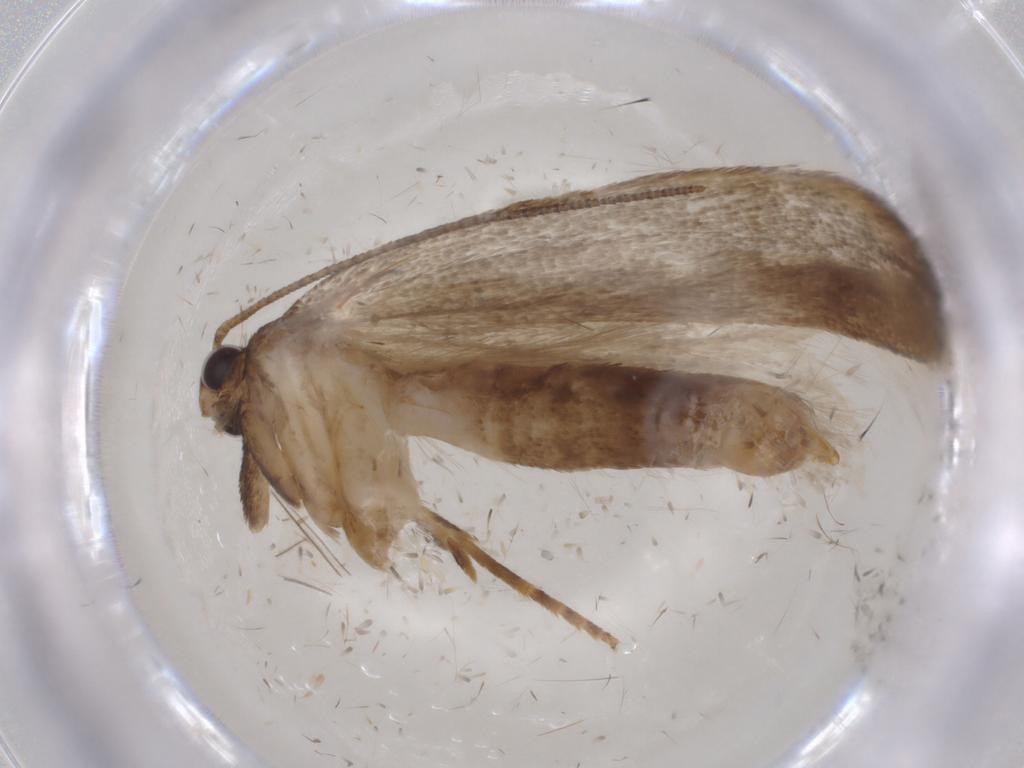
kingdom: Animalia
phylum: Arthropoda
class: Insecta
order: Lepidoptera
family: Gelechiidae
